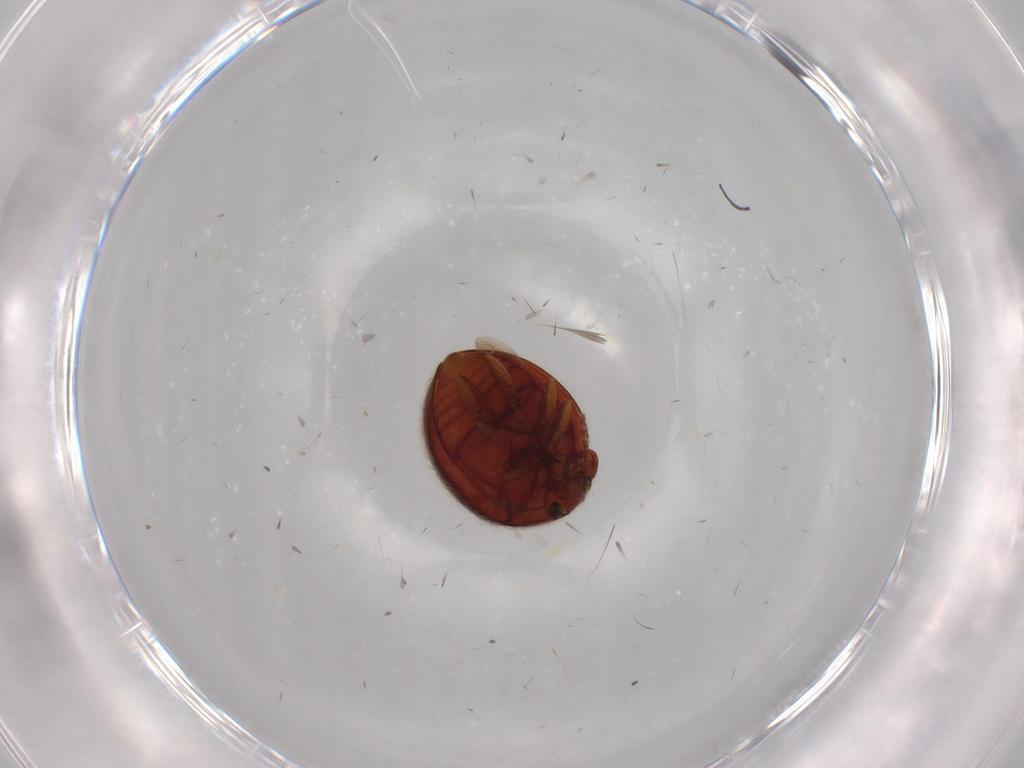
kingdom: Animalia
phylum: Arthropoda
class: Insecta
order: Coleoptera
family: Anamorphidae
